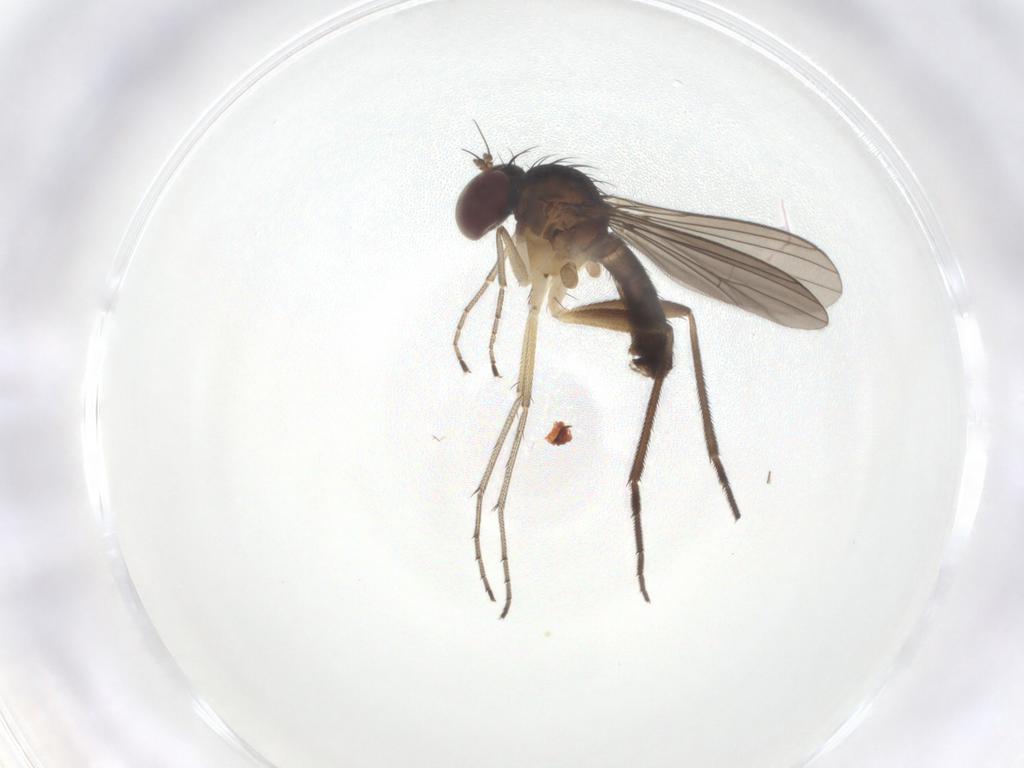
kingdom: Animalia
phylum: Arthropoda
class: Insecta
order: Diptera
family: Dolichopodidae
